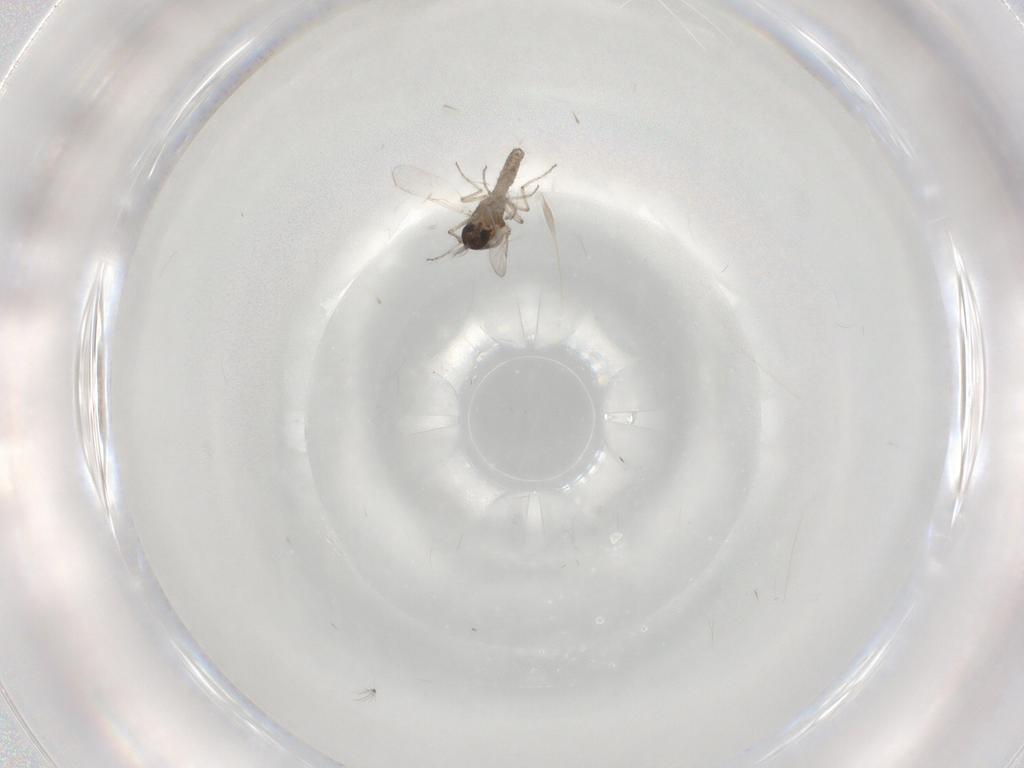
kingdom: Animalia
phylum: Arthropoda
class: Insecta
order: Diptera
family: Ceratopogonidae
